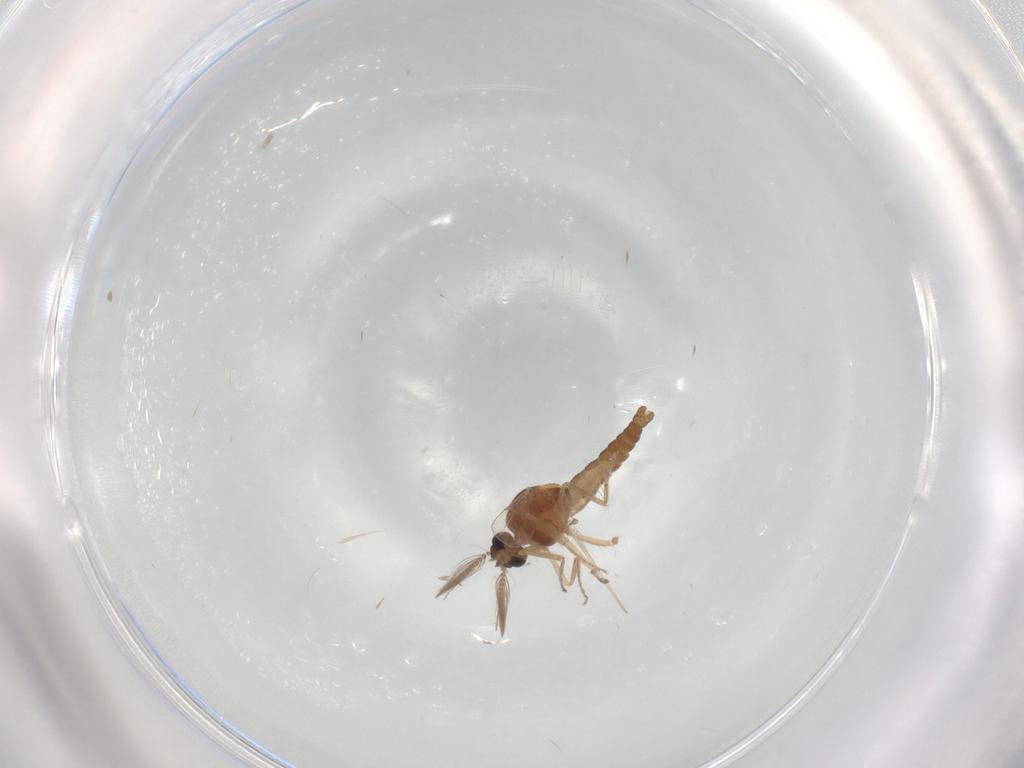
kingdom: Animalia
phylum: Arthropoda
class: Insecta
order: Diptera
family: Ceratopogonidae
